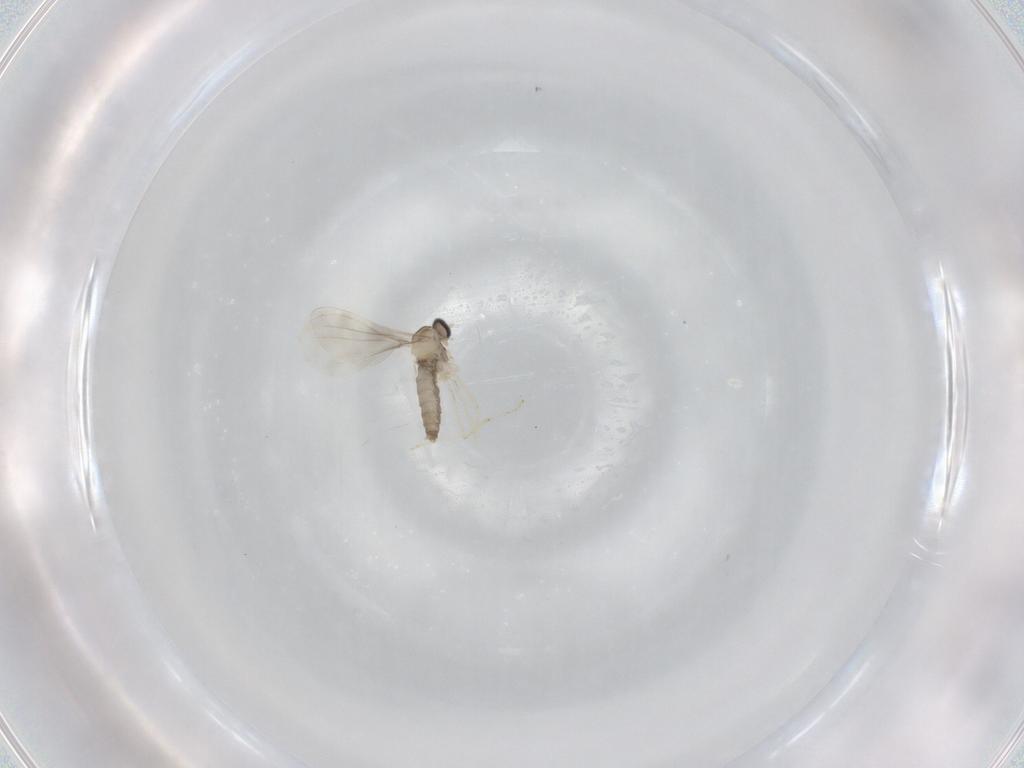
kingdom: Animalia
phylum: Arthropoda
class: Insecta
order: Diptera
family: Cecidomyiidae
